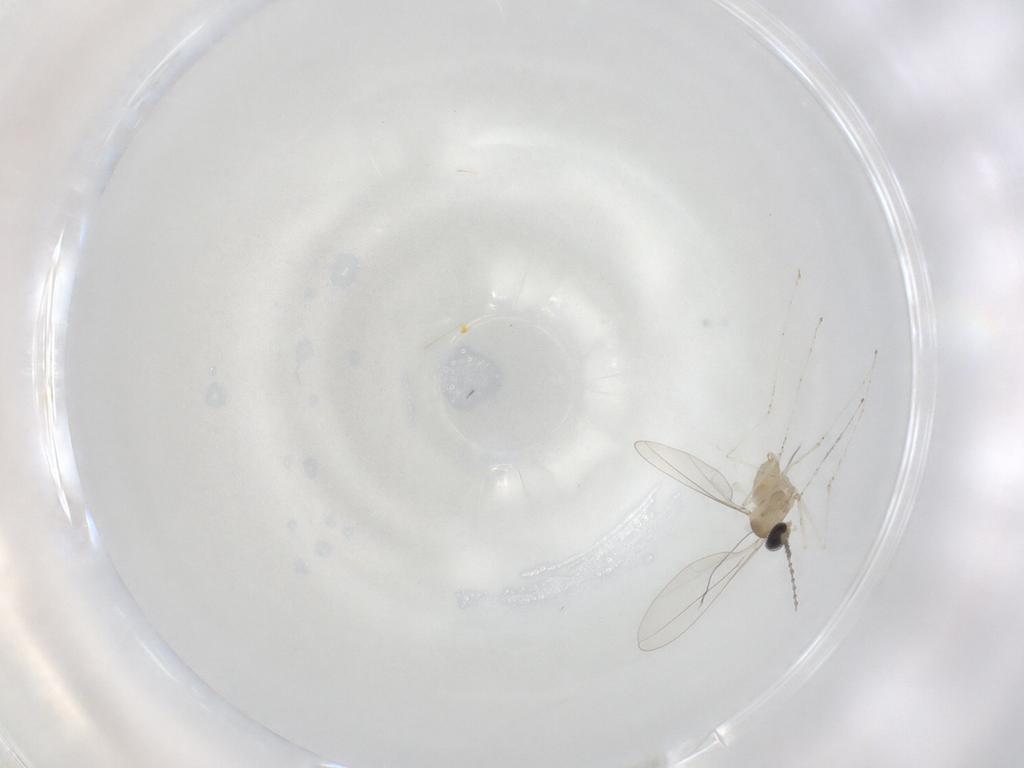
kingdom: Animalia
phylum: Arthropoda
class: Insecta
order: Diptera
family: Cecidomyiidae
